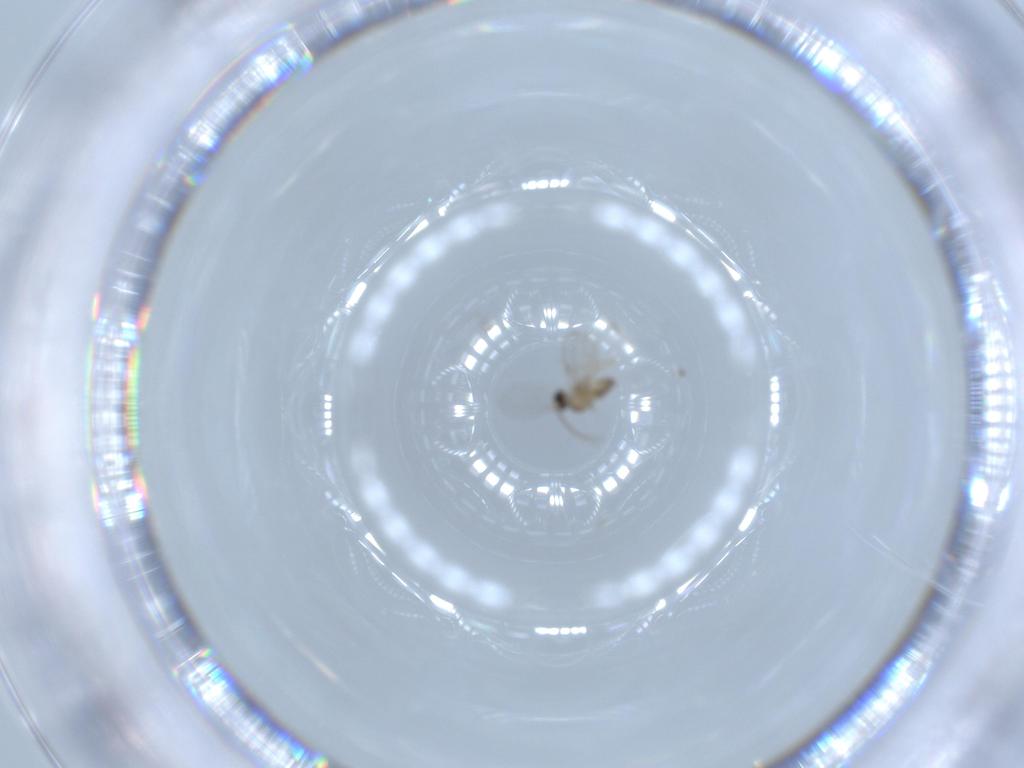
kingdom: Animalia
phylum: Arthropoda
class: Insecta
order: Diptera
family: Cecidomyiidae
